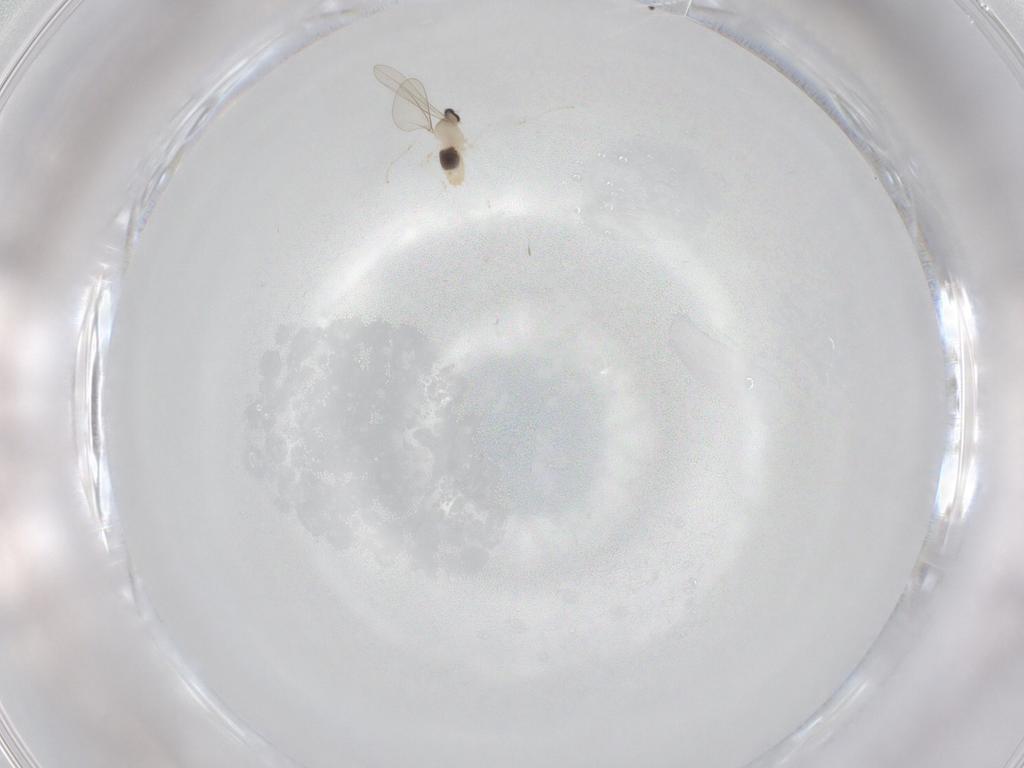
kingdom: Animalia
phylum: Arthropoda
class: Insecta
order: Diptera
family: Cecidomyiidae
